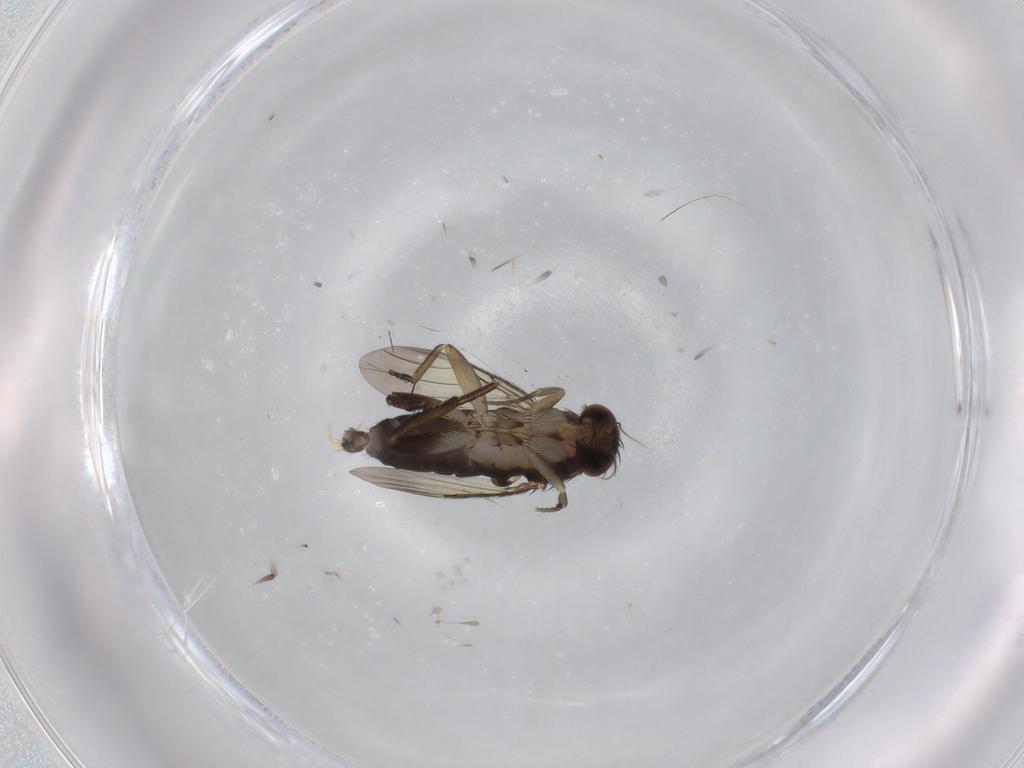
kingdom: Animalia
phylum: Arthropoda
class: Insecta
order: Diptera
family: Phoridae
